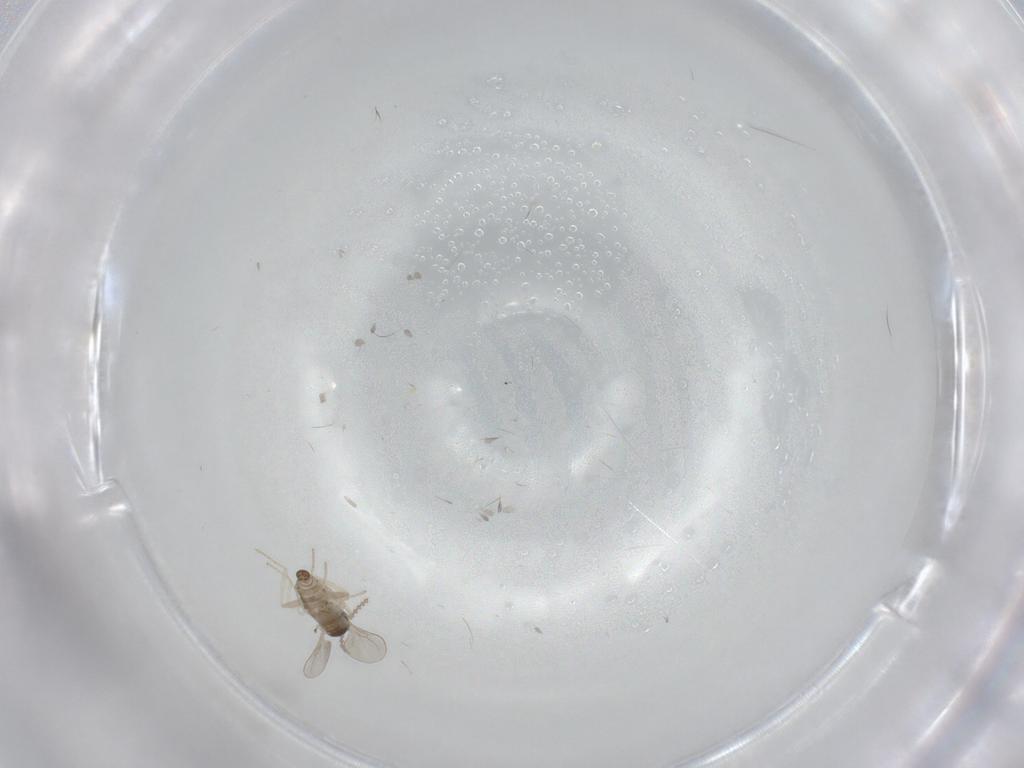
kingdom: Animalia
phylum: Arthropoda
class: Insecta
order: Diptera
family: Cecidomyiidae
